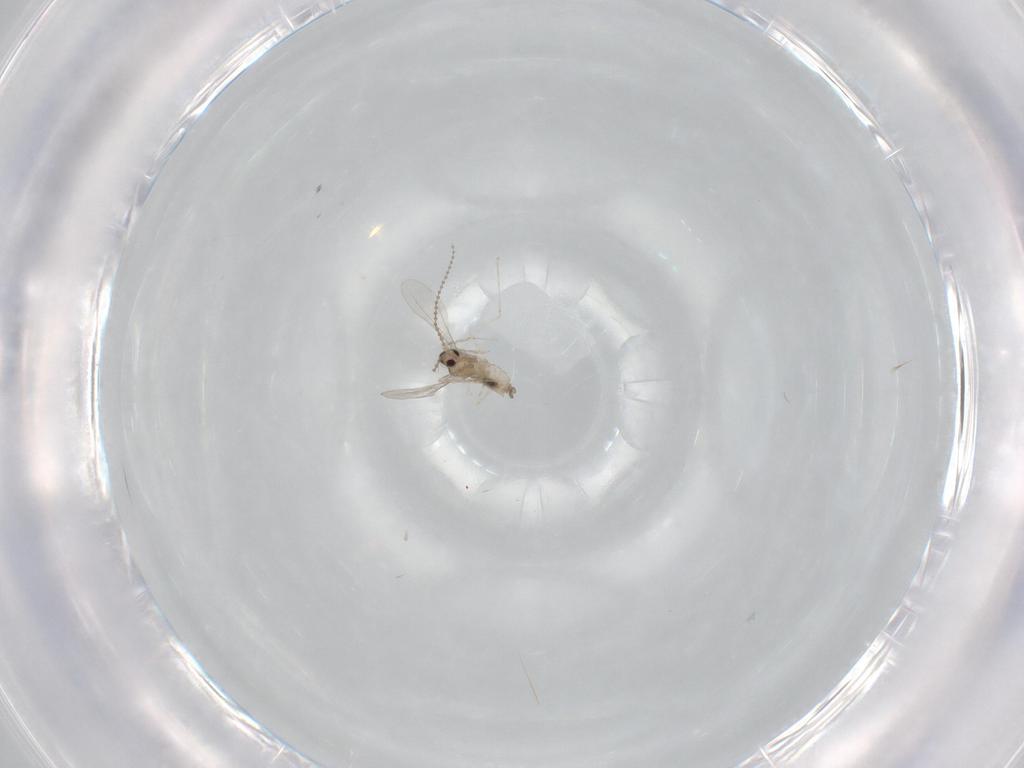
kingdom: Animalia
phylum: Arthropoda
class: Insecta
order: Diptera
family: Cecidomyiidae
